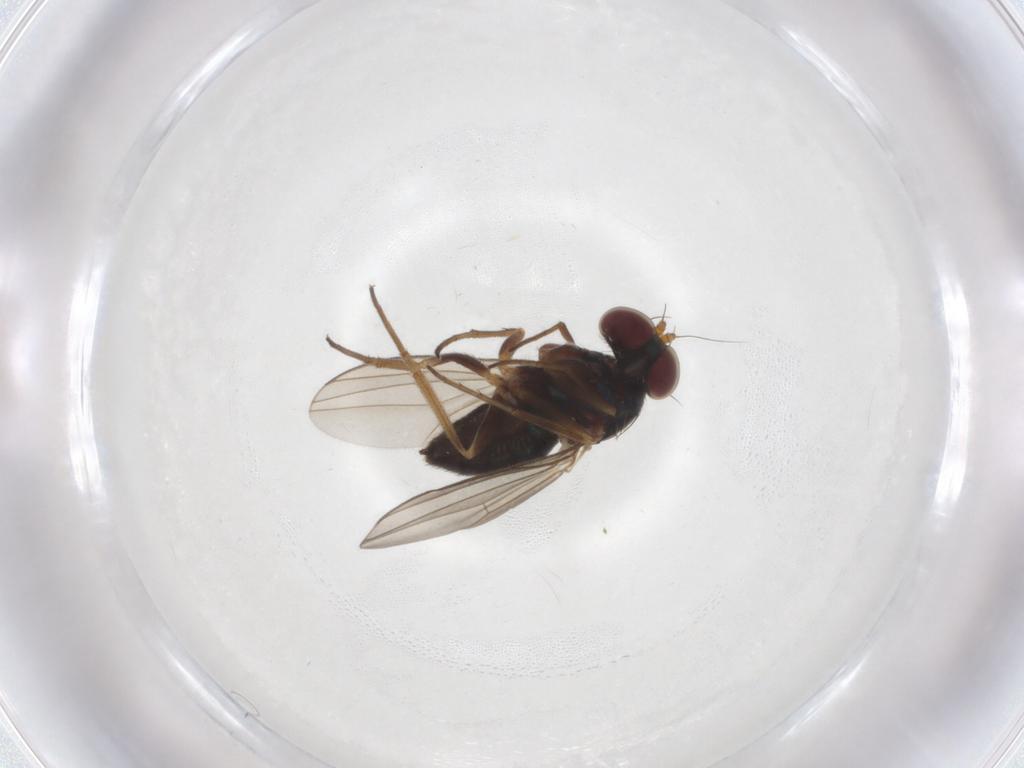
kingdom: Animalia
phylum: Arthropoda
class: Insecta
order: Diptera
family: Dolichopodidae
